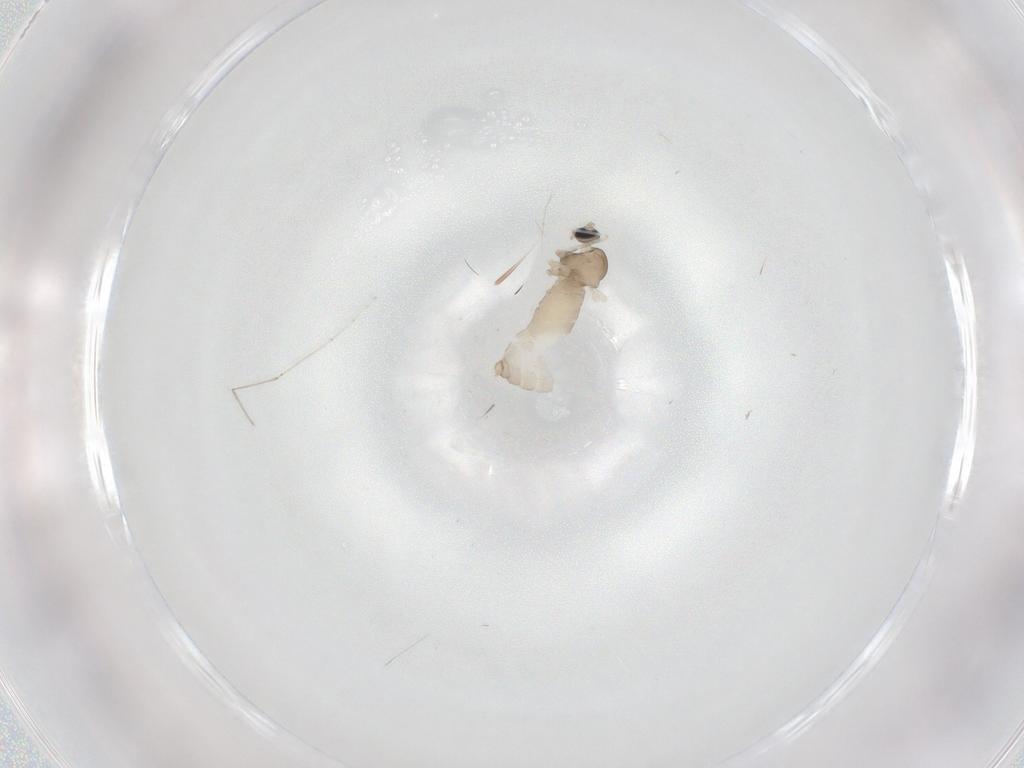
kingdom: Animalia
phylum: Arthropoda
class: Insecta
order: Diptera
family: Cecidomyiidae
